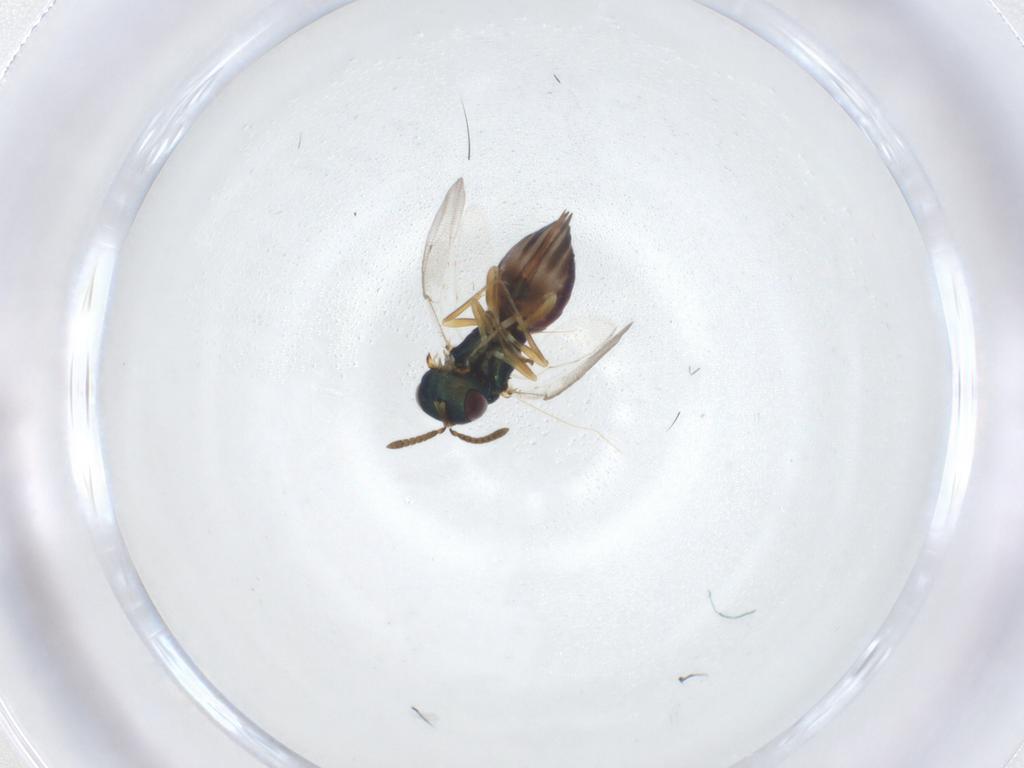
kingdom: Animalia
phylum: Arthropoda
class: Insecta
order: Hymenoptera
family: Pteromalidae
